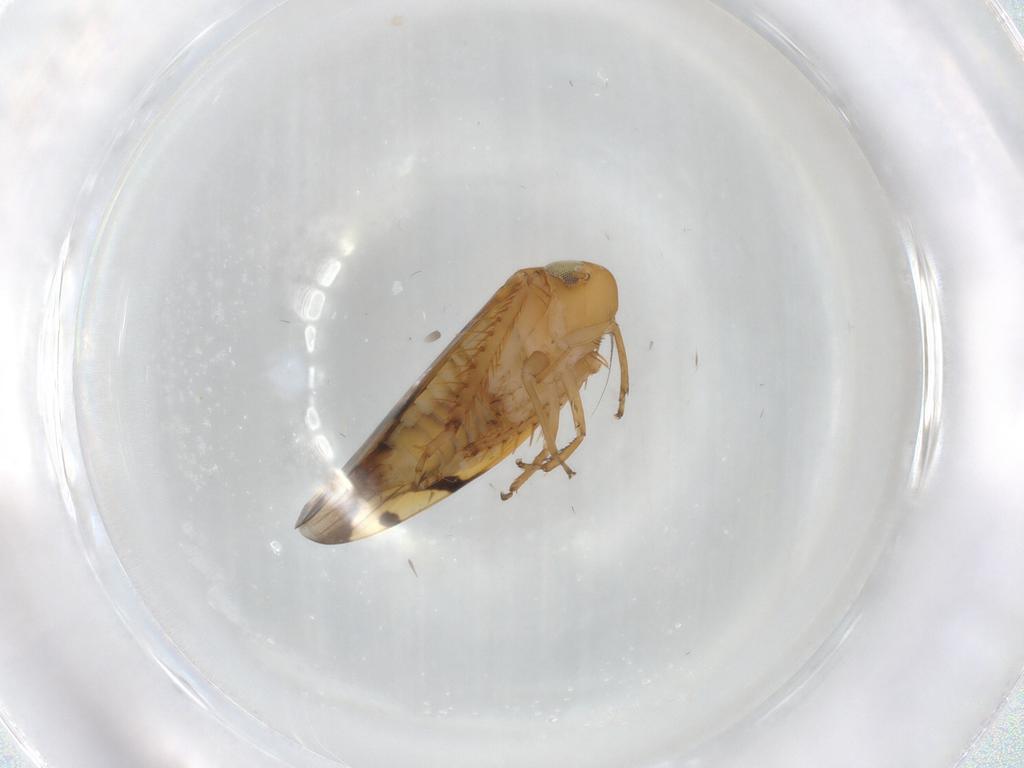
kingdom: Animalia
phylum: Arthropoda
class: Insecta
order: Hemiptera
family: Cicadellidae
